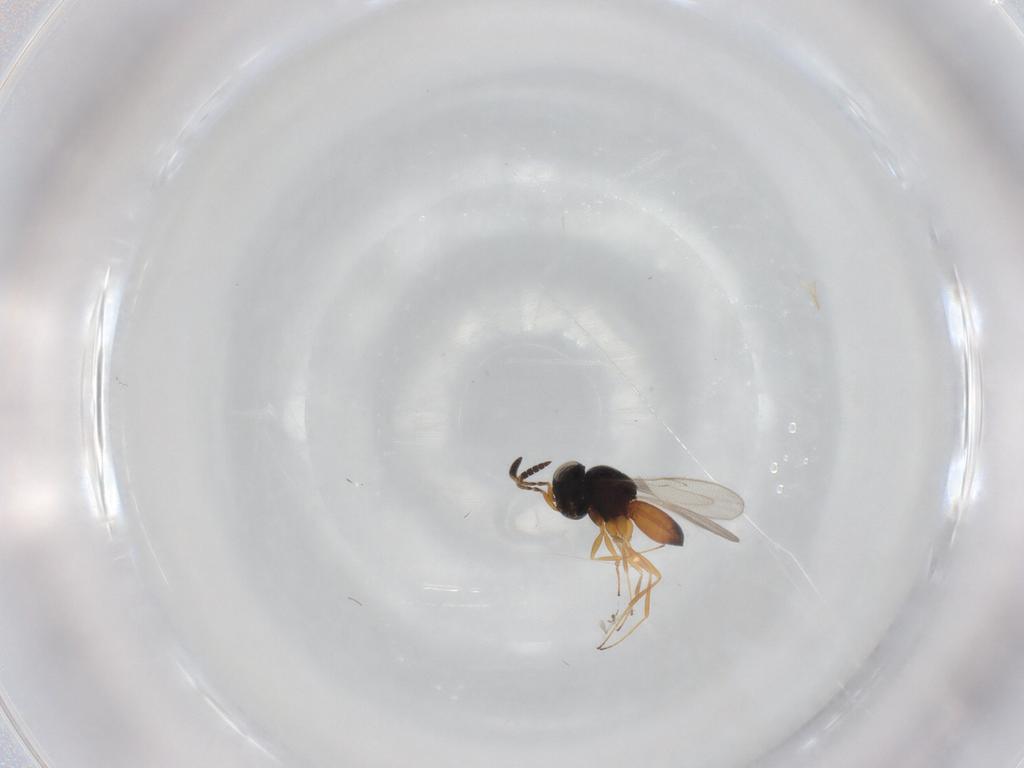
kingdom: Animalia
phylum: Arthropoda
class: Insecta
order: Hymenoptera
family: Scelionidae
